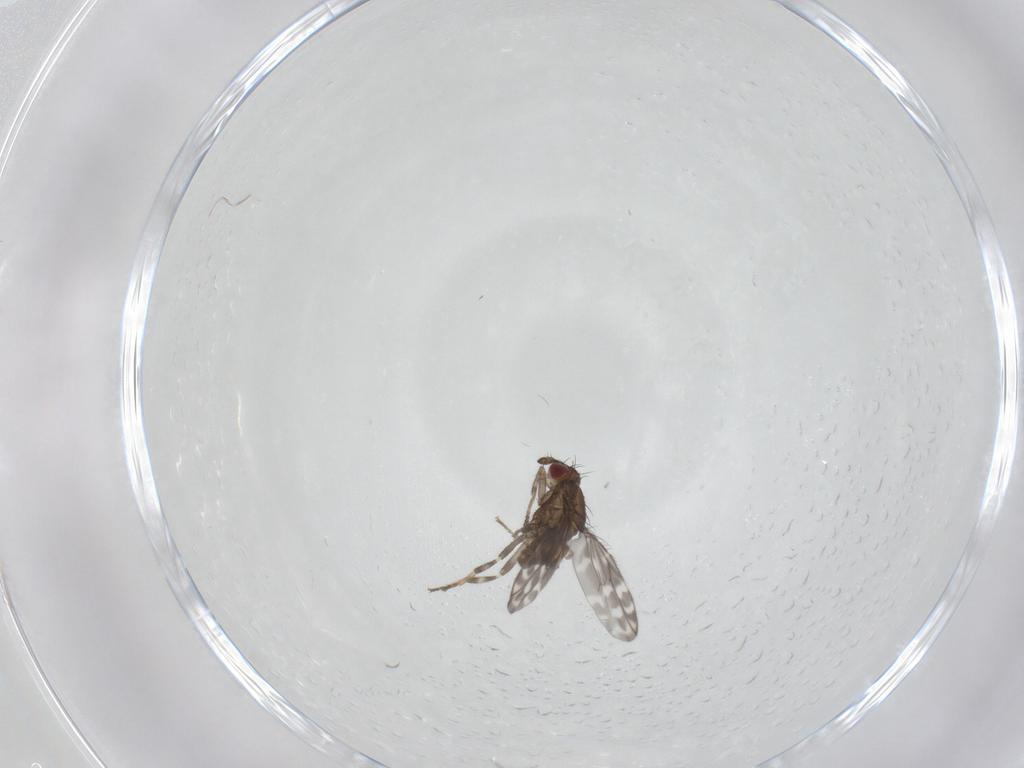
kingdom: Animalia
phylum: Arthropoda
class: Insecta
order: Diptera
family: Sphaeroceridae
